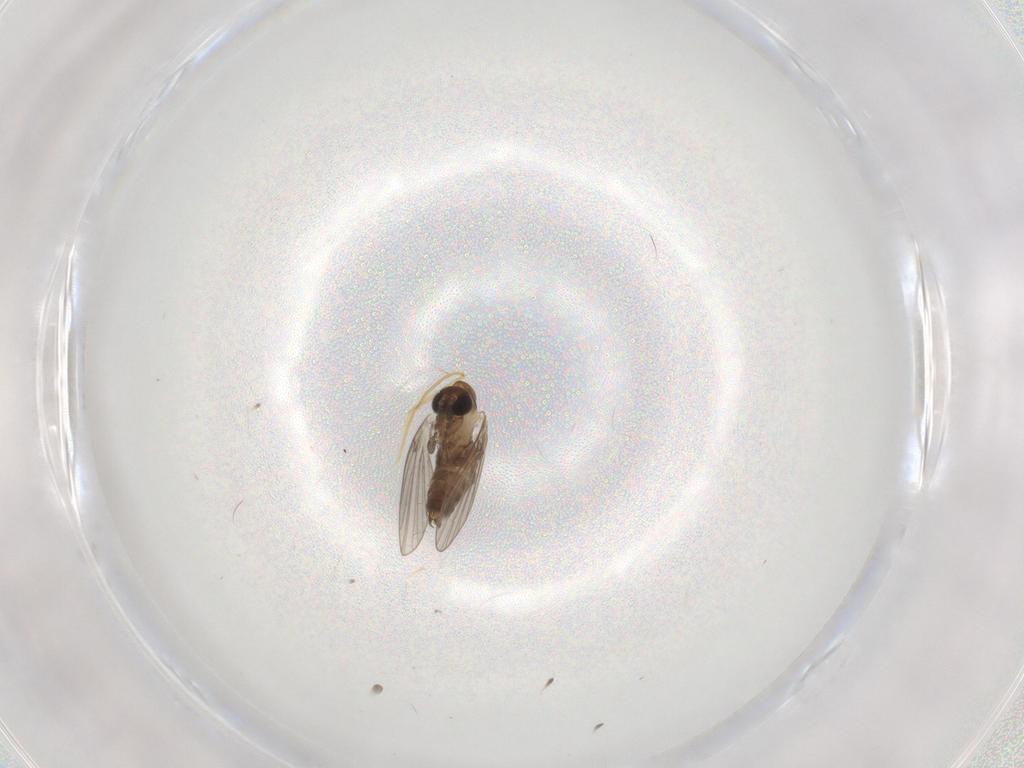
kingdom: Animalia
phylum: Arthropoda
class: Insecta
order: Diptera
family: Psychodidae
